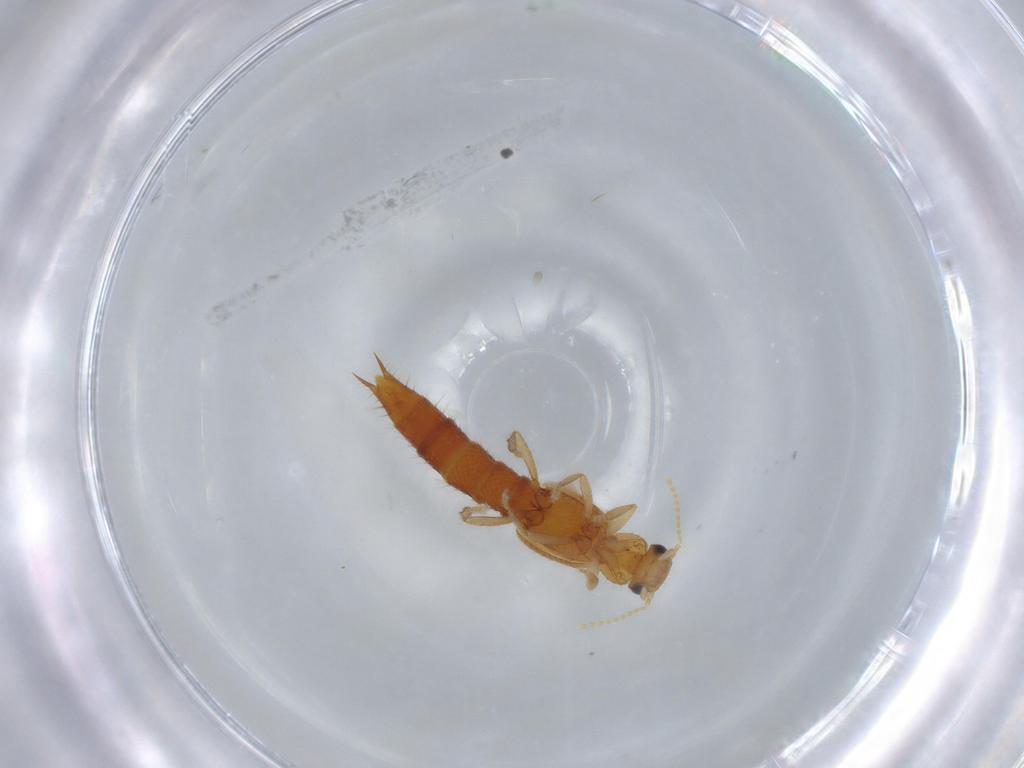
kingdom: Animalia
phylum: Arthropoda
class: Insecta
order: Coleoptera
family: Staphylinidae
